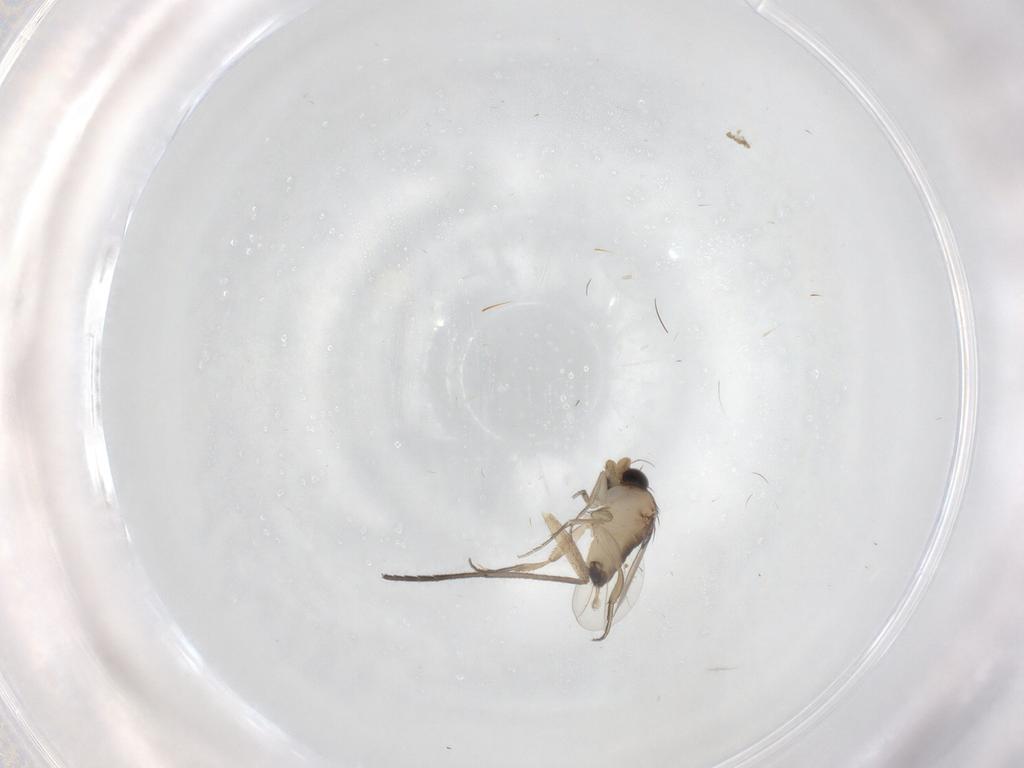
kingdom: Animalia
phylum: Arthropoda
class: Insecta
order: Diptera
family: Sciaridae
